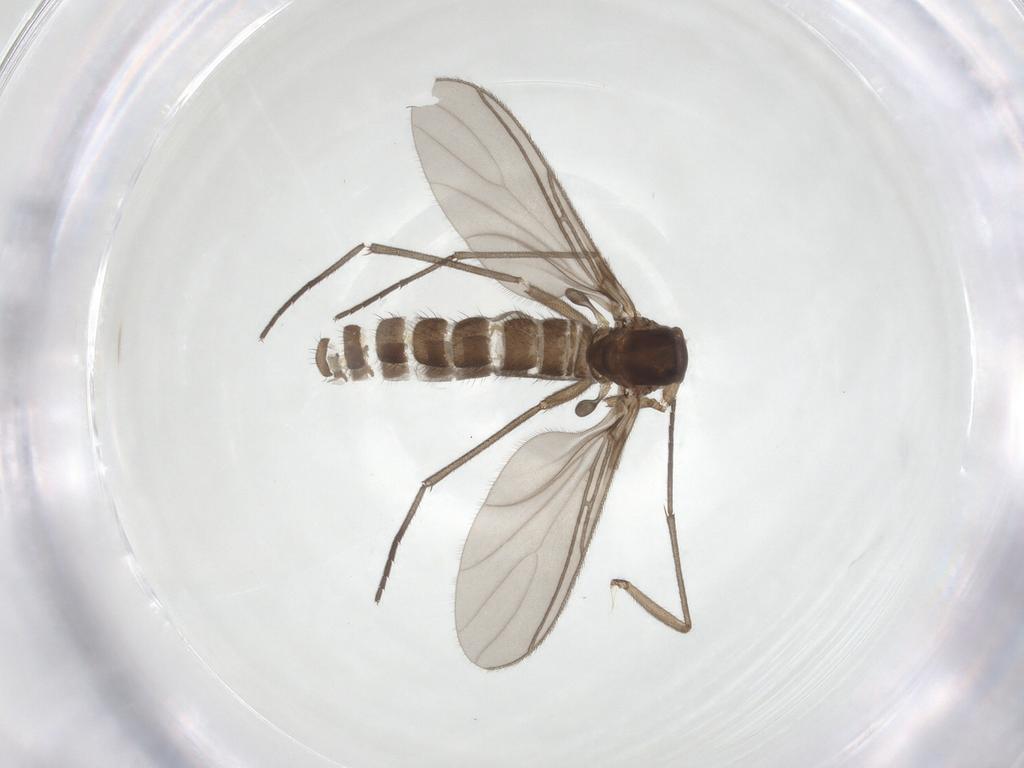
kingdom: Animalia
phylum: Arthropoda
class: Insecta
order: Diptera
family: Sciaridae
